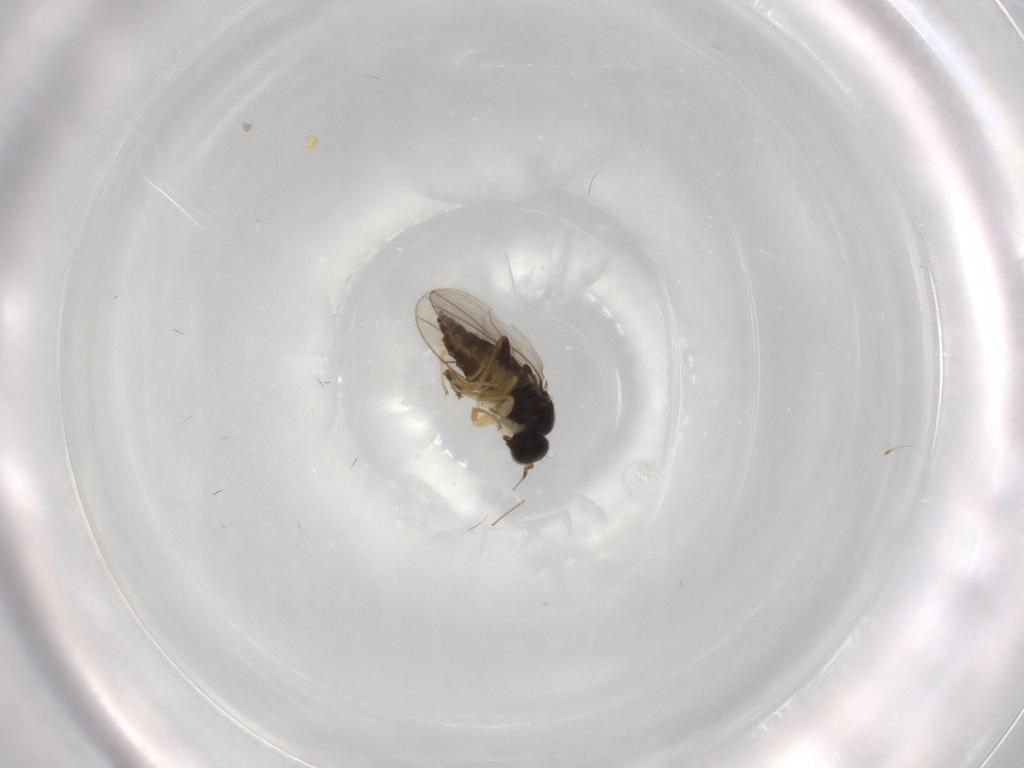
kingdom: Animalia
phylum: Arthropoda
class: Insecta
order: Diptera
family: Hybotidae
